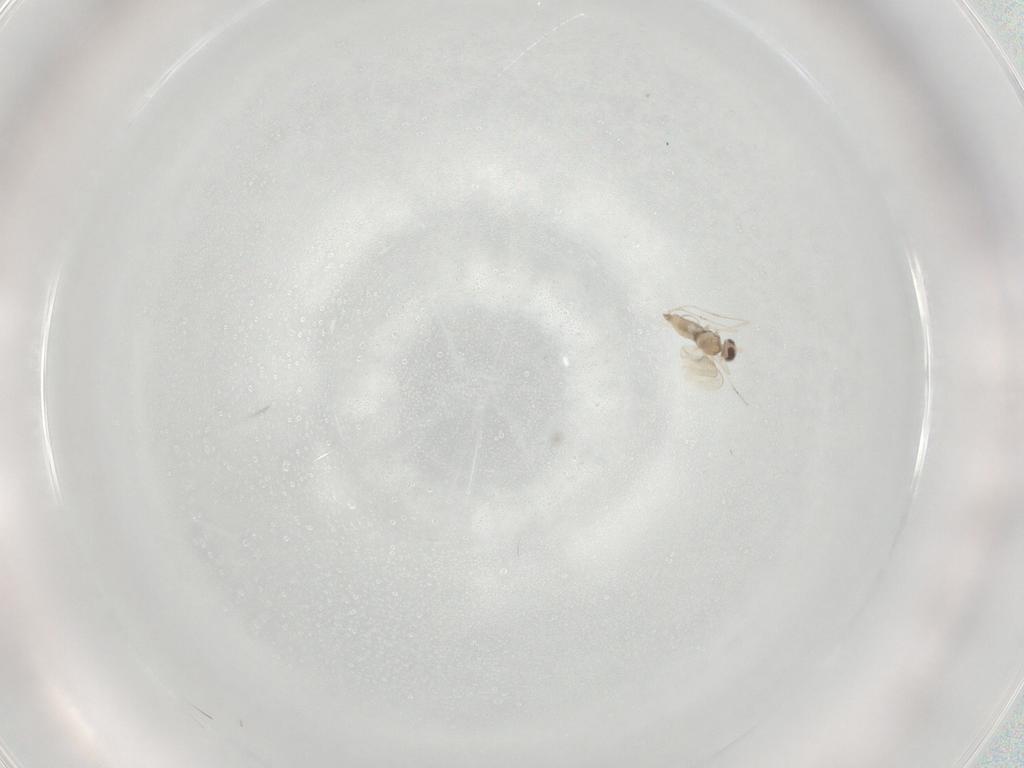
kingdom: Animalia
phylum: Arthropoda
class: Insecta
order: Diptera
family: Cecidomyiidae
